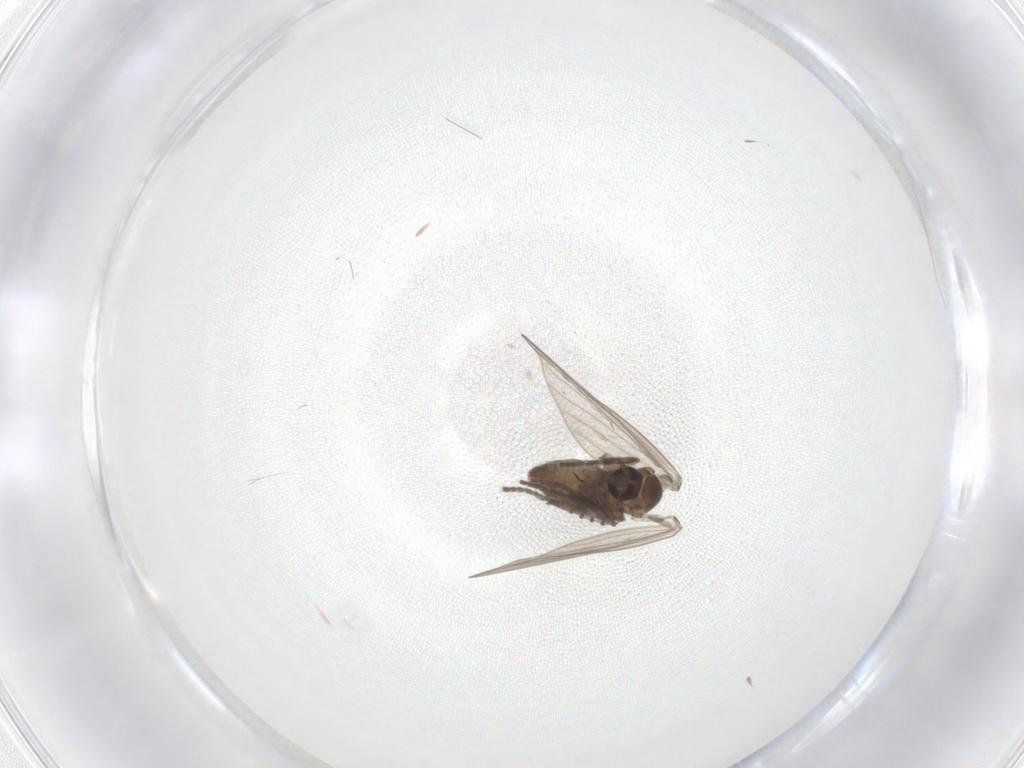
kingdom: Animalia
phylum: Arthropoda
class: Insecta
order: Diptera
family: Psychodidae
